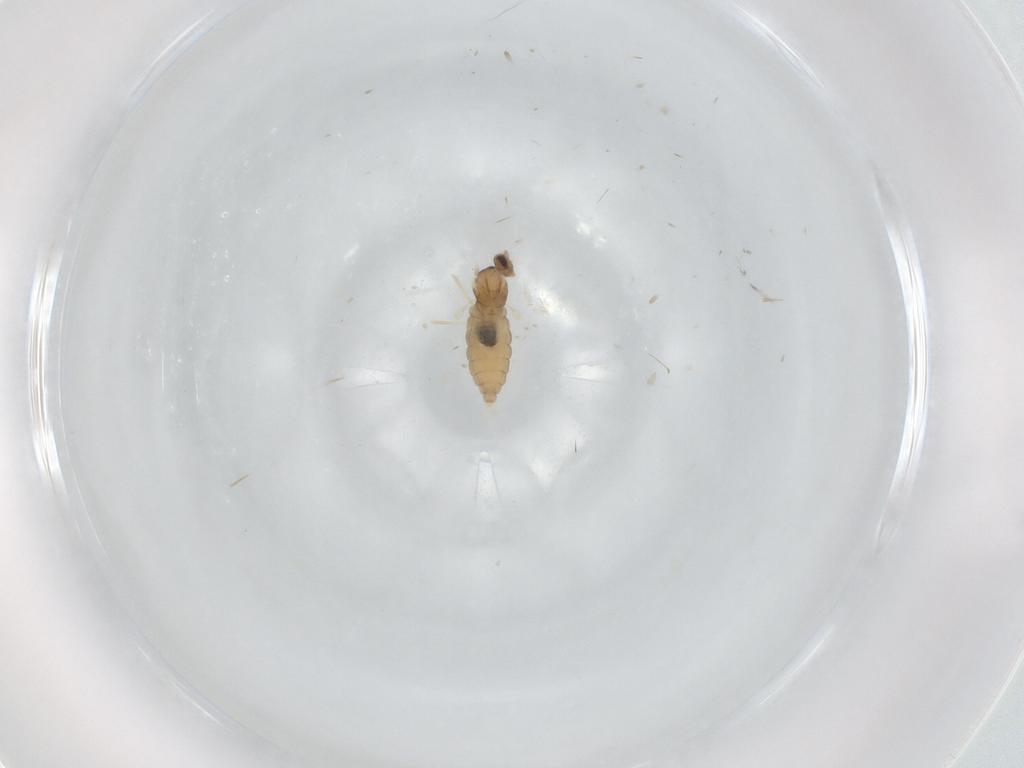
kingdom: Animalia
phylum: Arthropoda
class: Insecta
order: Diptera
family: Cecidomyiidae
